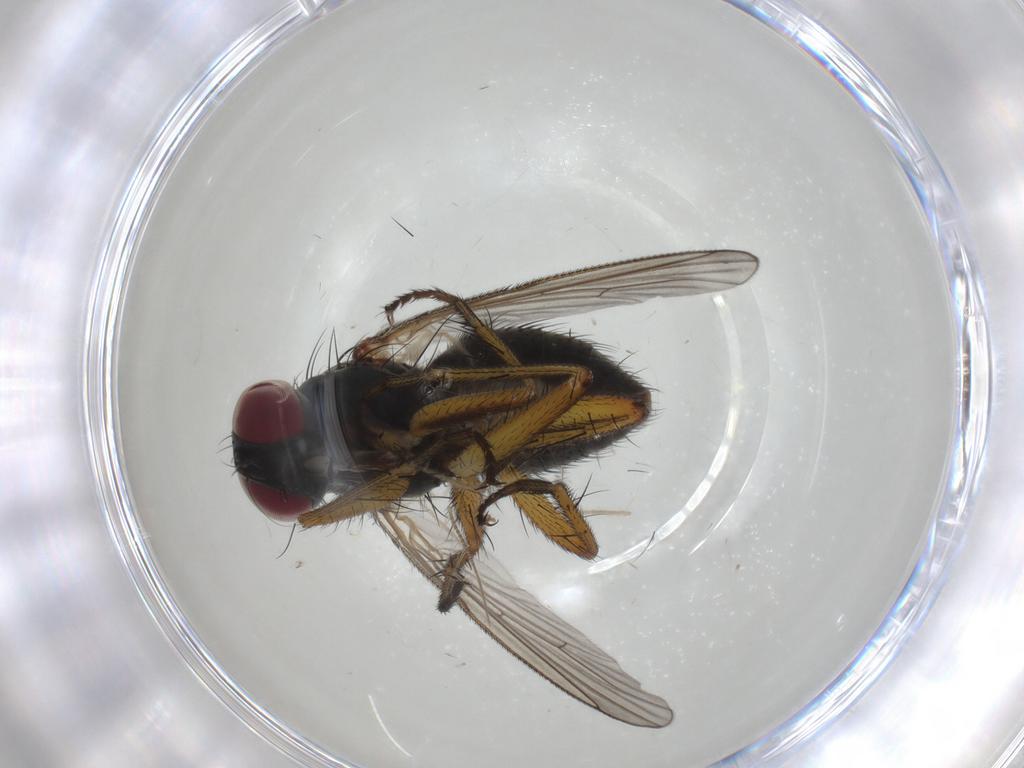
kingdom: Animalia
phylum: Arthropoda
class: Insecta
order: Diptera
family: Muscidae
